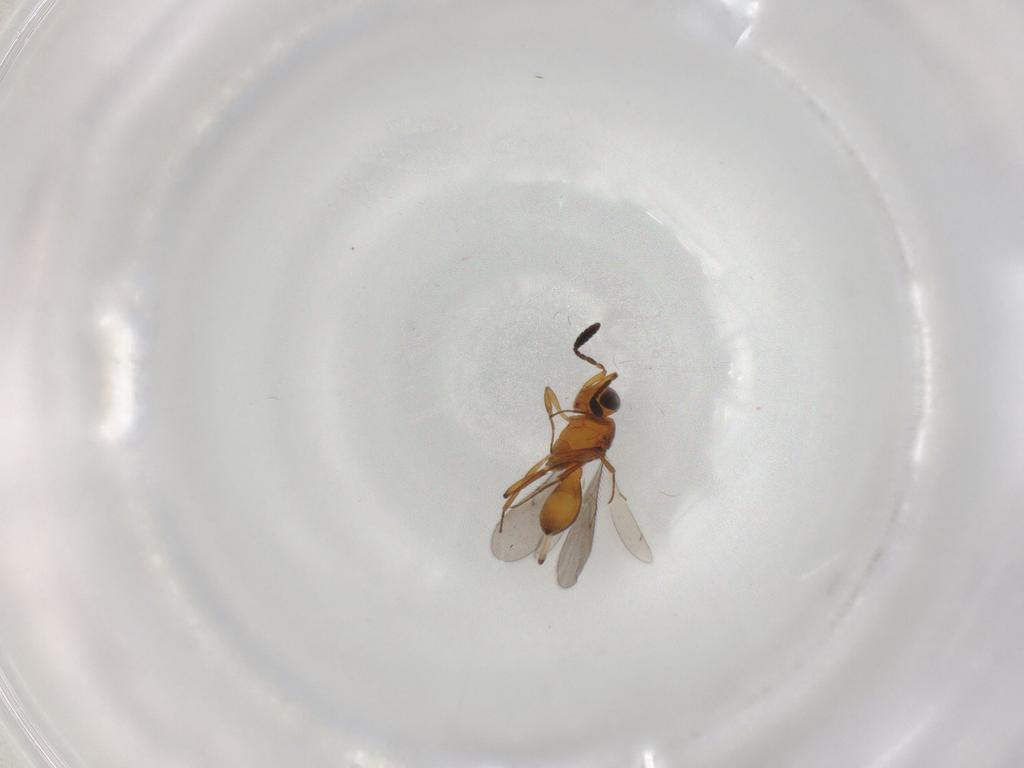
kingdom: Animalia
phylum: Arthropoda
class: Insecta
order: Hymenoptera
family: Scelionidae
